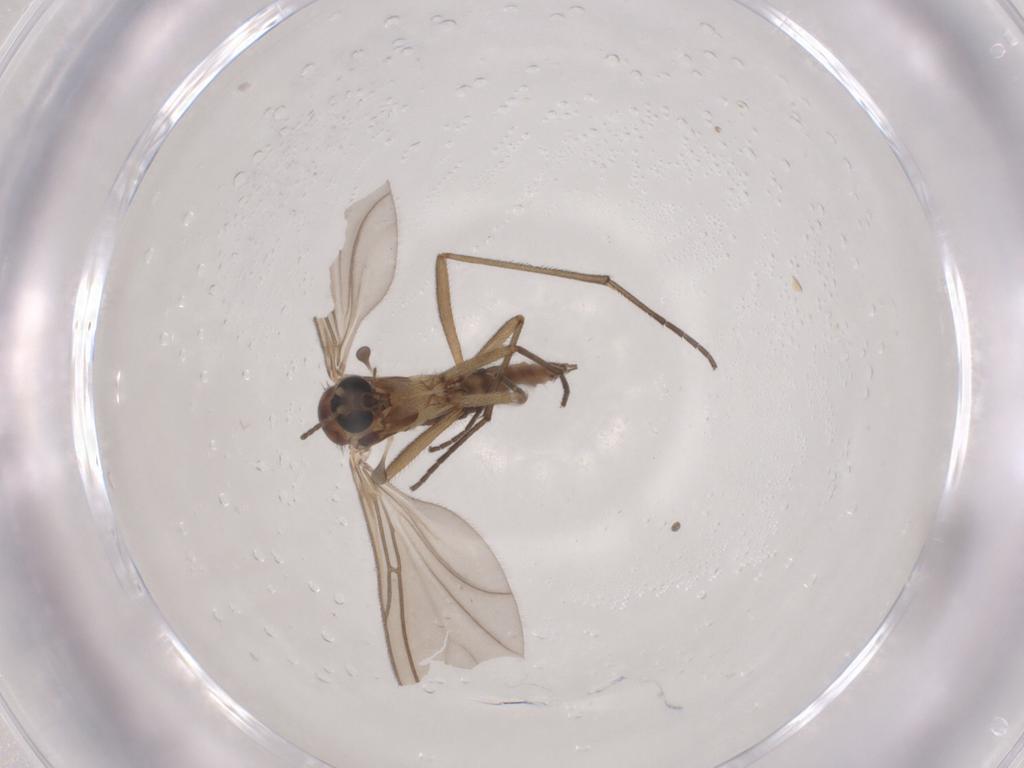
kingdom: Animalia
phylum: Arthropoda
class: Insecta
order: Diptera
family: Sciaridae
